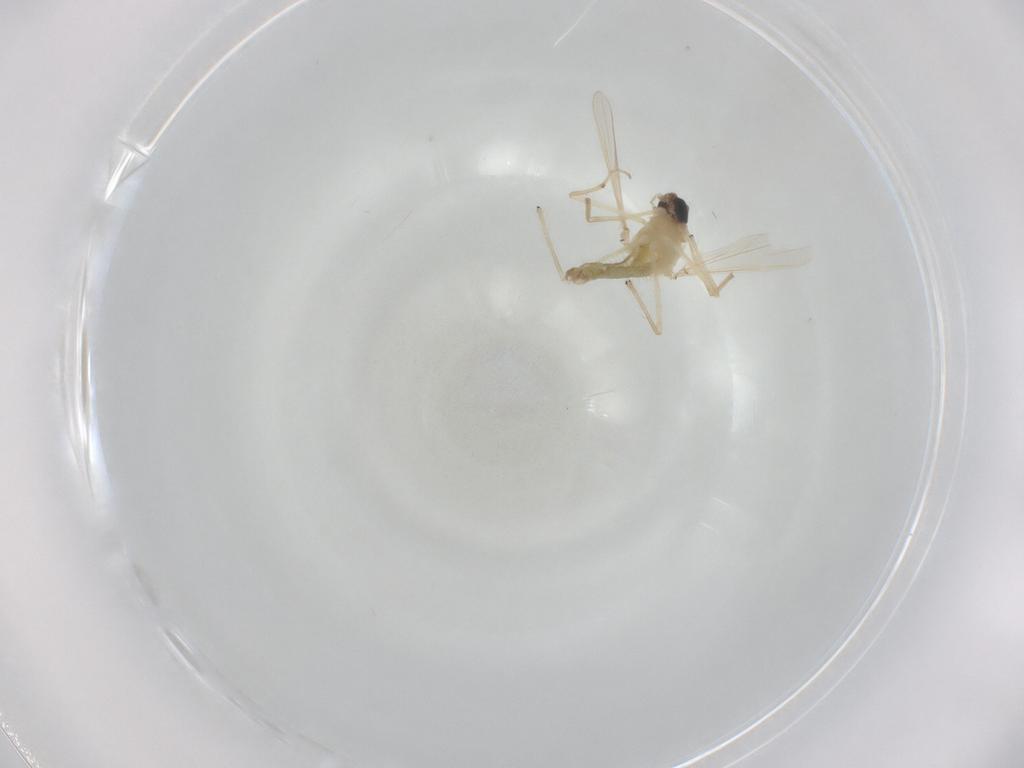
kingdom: Animalia
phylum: Arthropoda
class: Insecta
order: Diptera
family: Chironomidae
